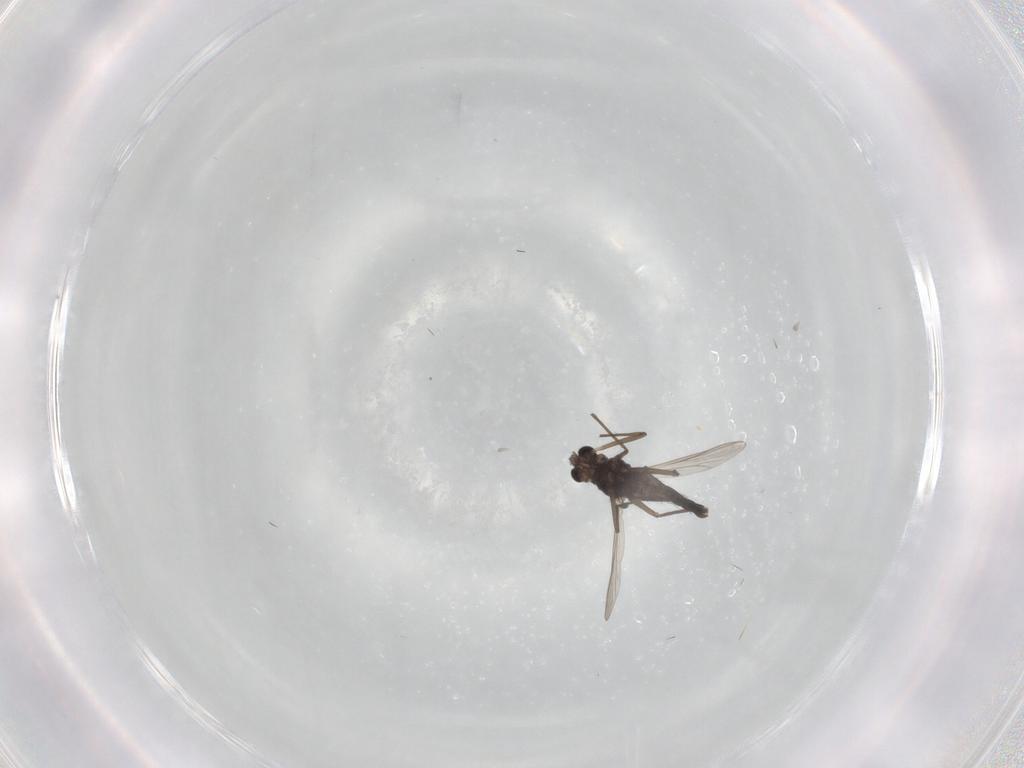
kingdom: Animalia
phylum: Arthropoda
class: Insecta
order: Diptera
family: Chironomidae
